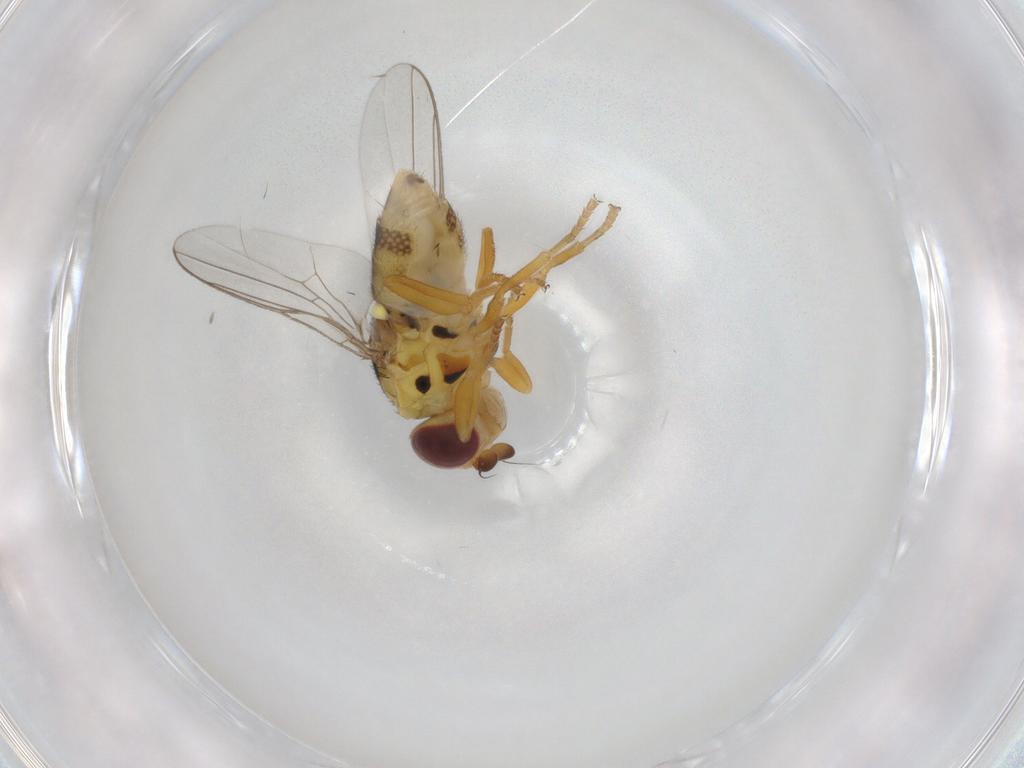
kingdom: Animalia
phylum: Arthropoda
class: Insecta
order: Diptera
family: Chloropidae
